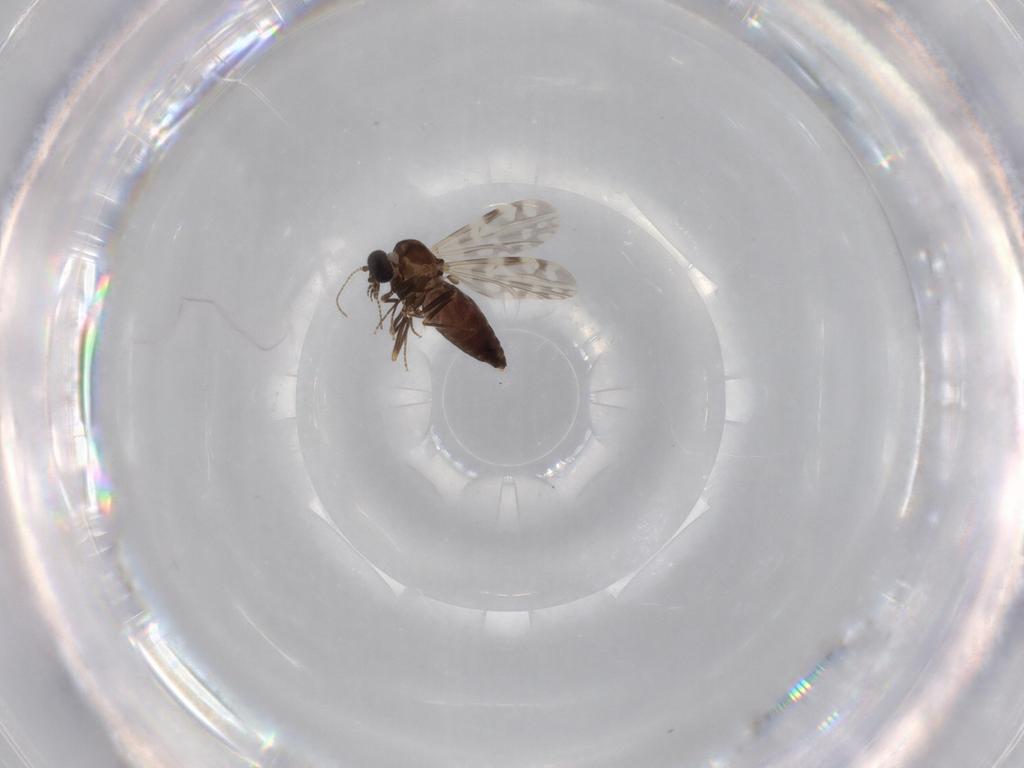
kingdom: Animalia
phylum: Arthropoda
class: Insecta
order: Diptera
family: Ceratopogonidae
